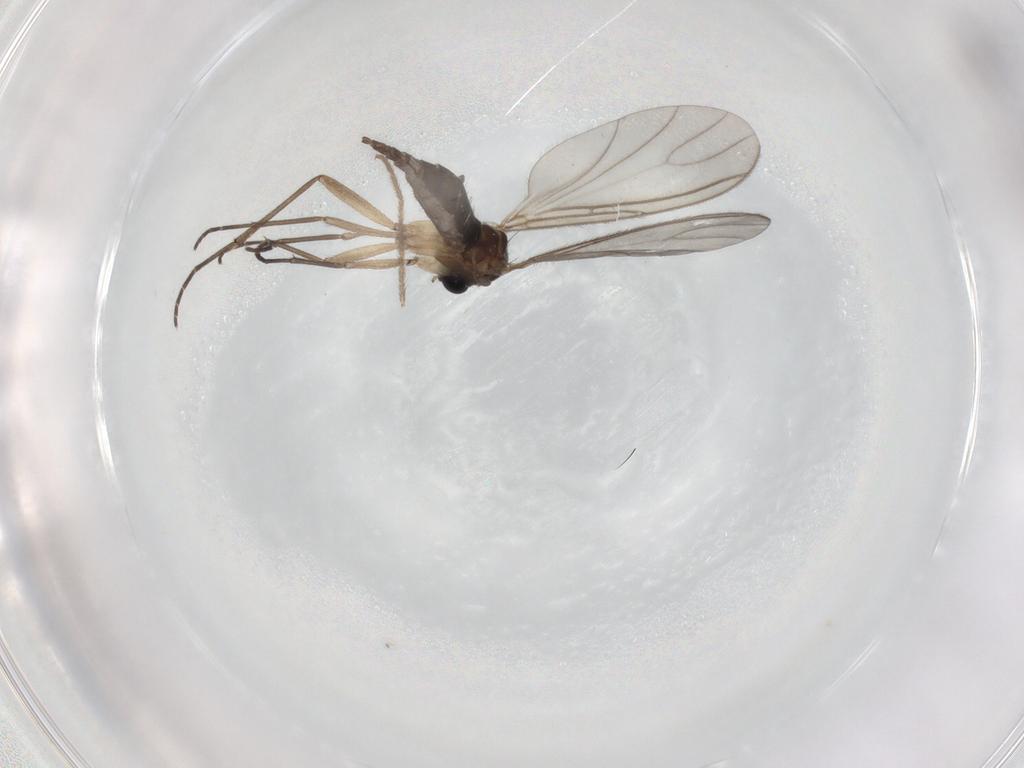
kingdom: Animalia
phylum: Arthropoda
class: Insecta
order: Diptera
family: Sciaridae
